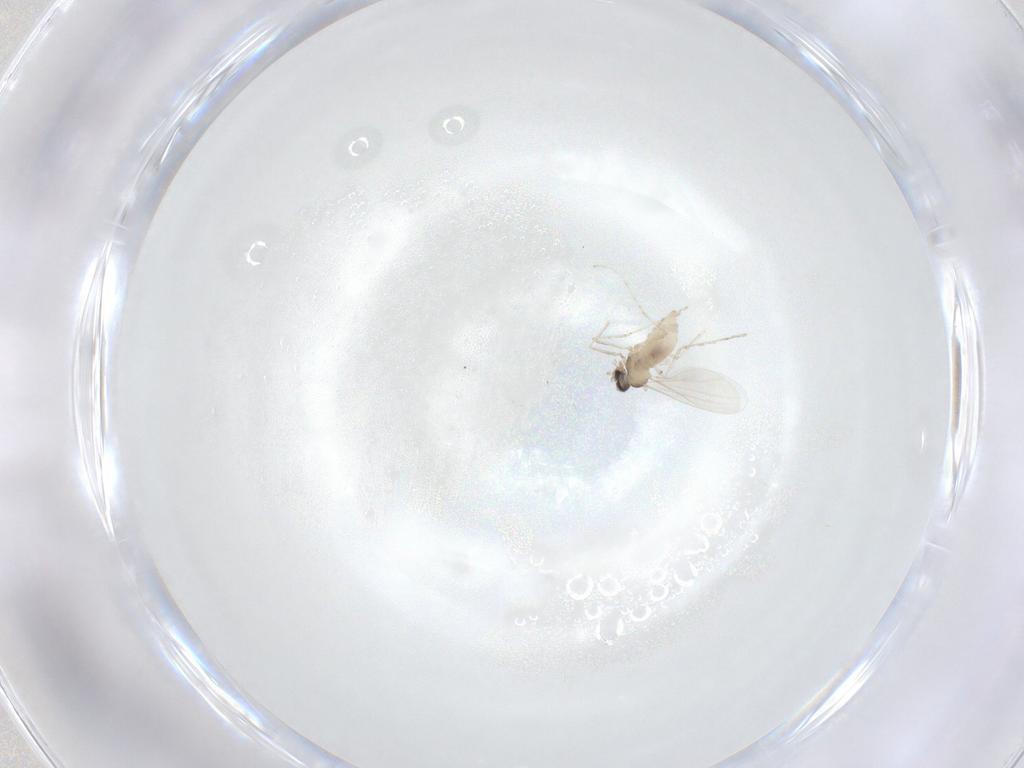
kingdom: Animalia
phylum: Arthropoda
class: Insecta
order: Diptera
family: Cecidomyiidae
